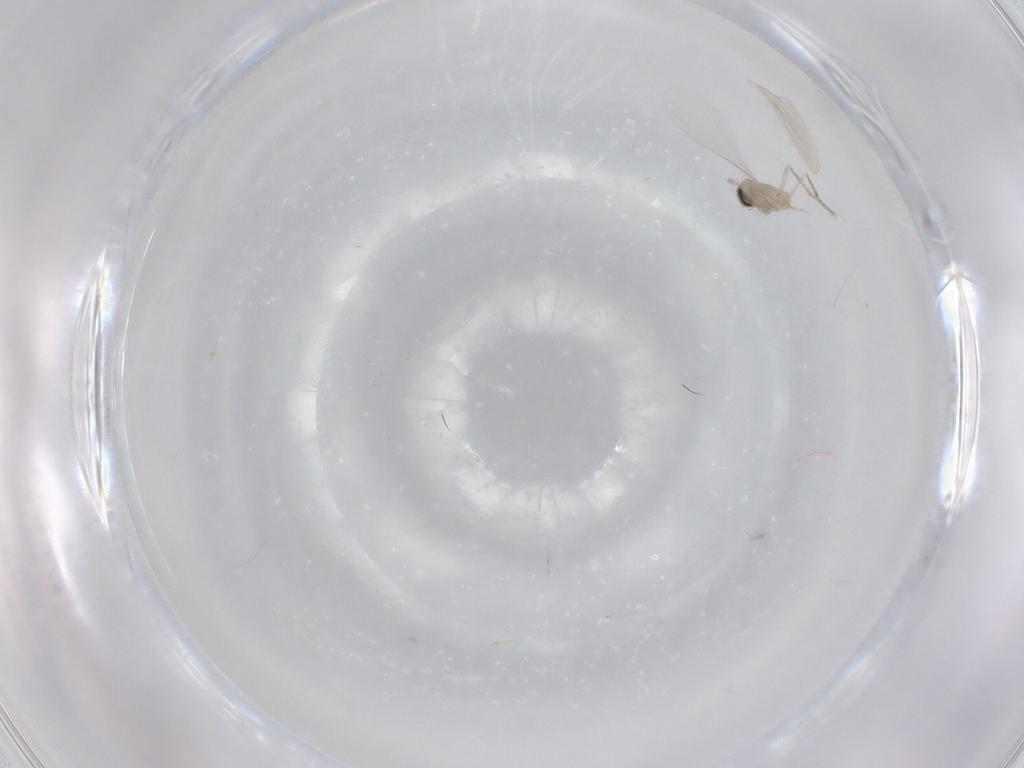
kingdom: Animalia
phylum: Arthropoda
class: Insecta
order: Diptera
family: Cecidomyiidae
